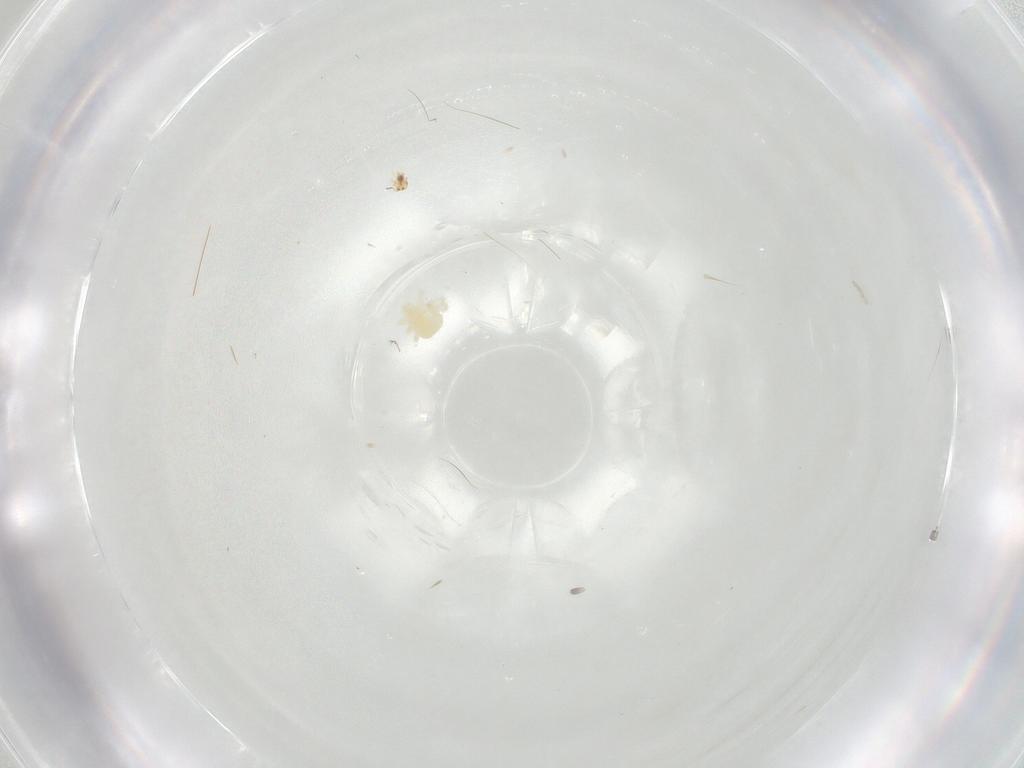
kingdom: Animalia
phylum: Arthropoda
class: Arachnida
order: Trombidiformes
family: Anystidae
